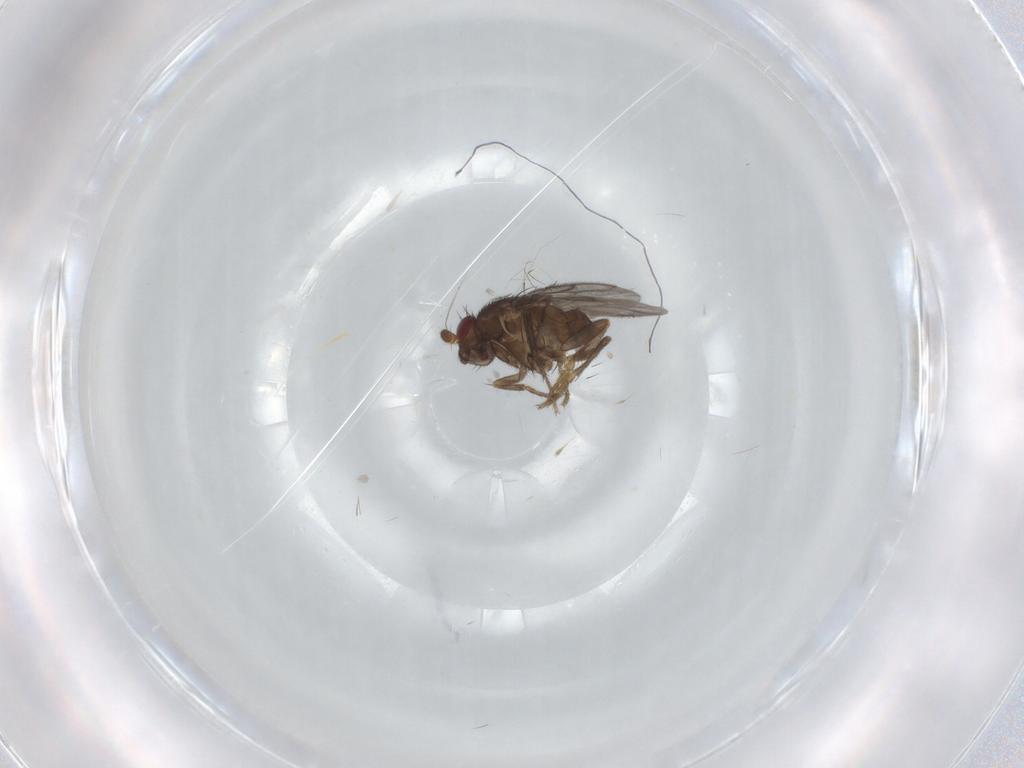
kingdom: Animalia
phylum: Arthropoda
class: Insecta
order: Diptera
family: Sphaeroceridae
